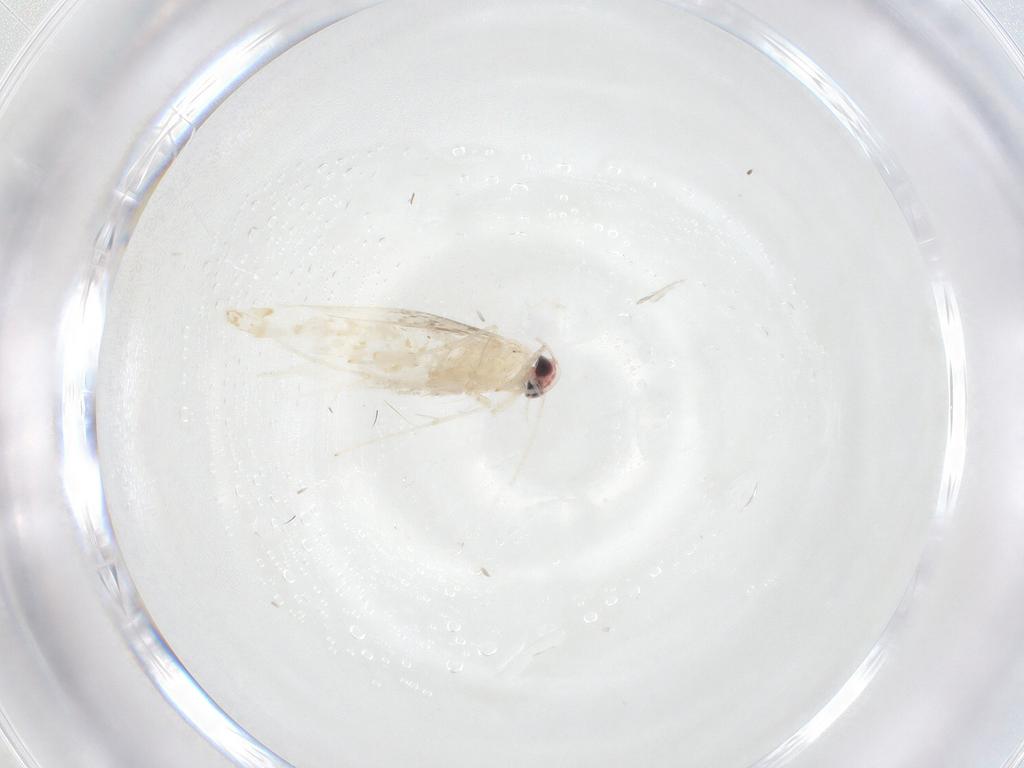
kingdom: Animalia
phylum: Arthropoda
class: Insecta
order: Lepidoptera
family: Gracillariidae
